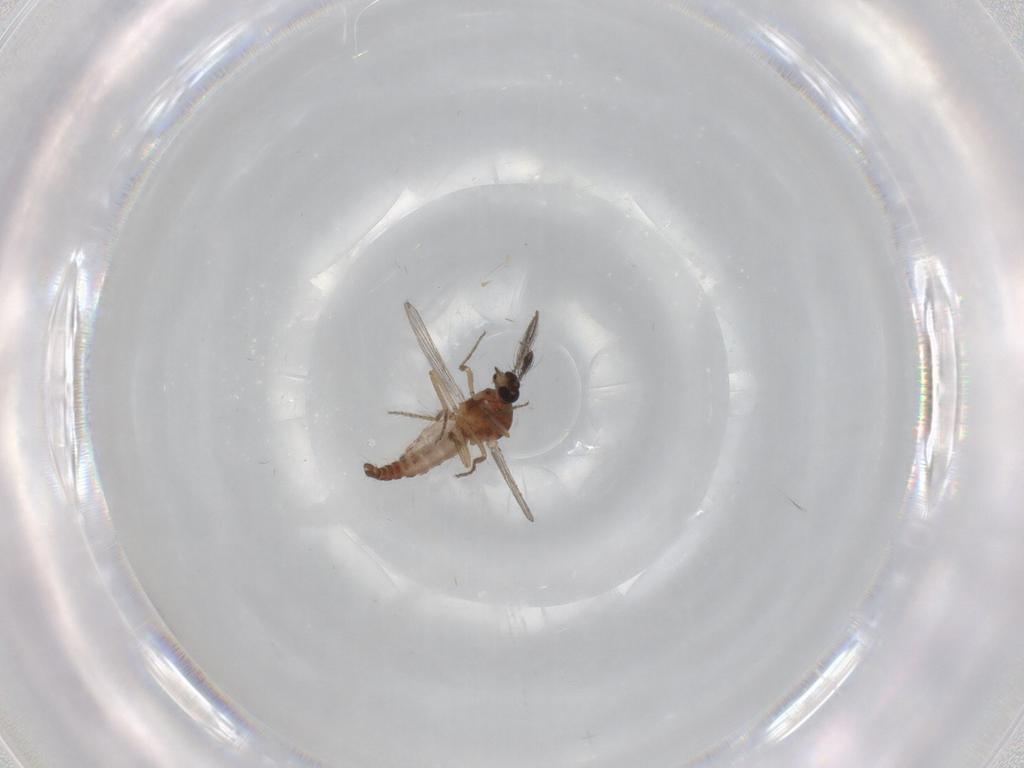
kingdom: Animalia
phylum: Arthropoda
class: Insecta
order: Diptera
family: Ceratopogonidae
